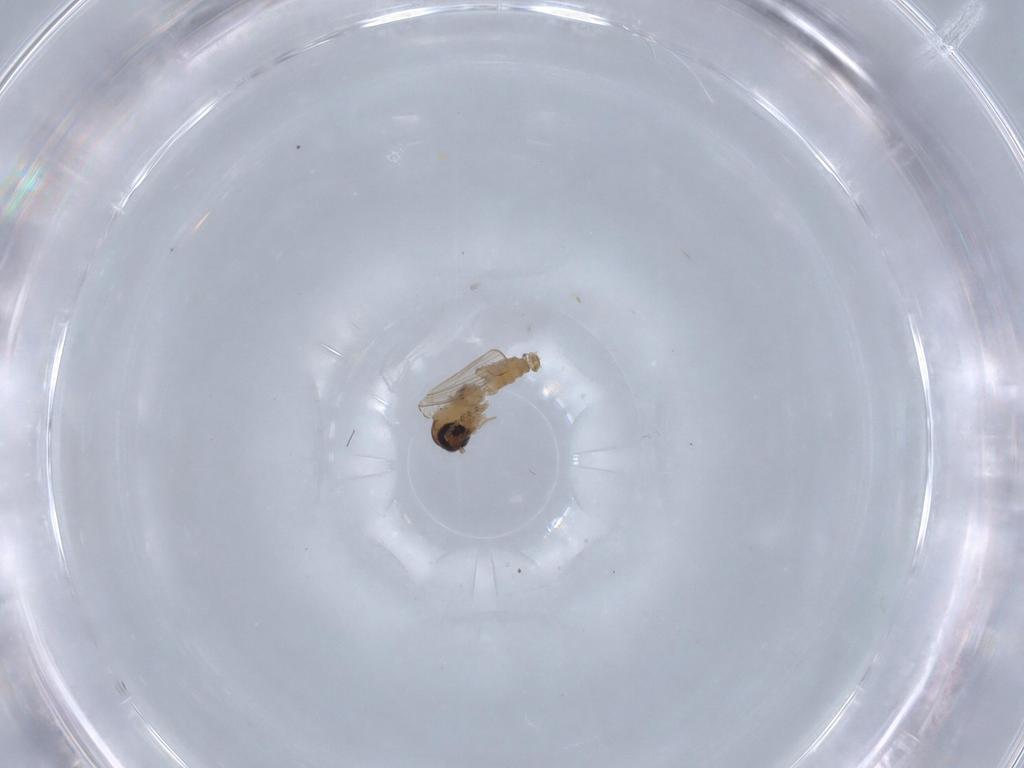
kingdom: Animalia
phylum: Arthropoda
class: Insecta
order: Diptera
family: Psychodidae
